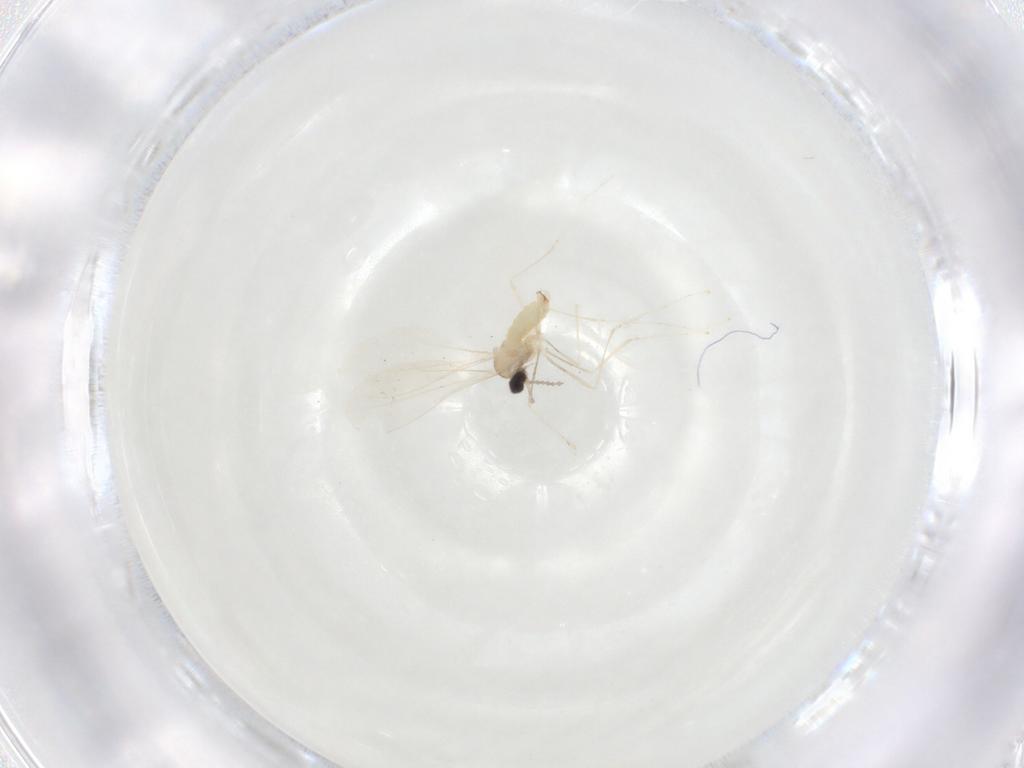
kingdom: Animalia
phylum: Arthropoda
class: Insecta
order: Diptera
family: Cecidomyiidae
